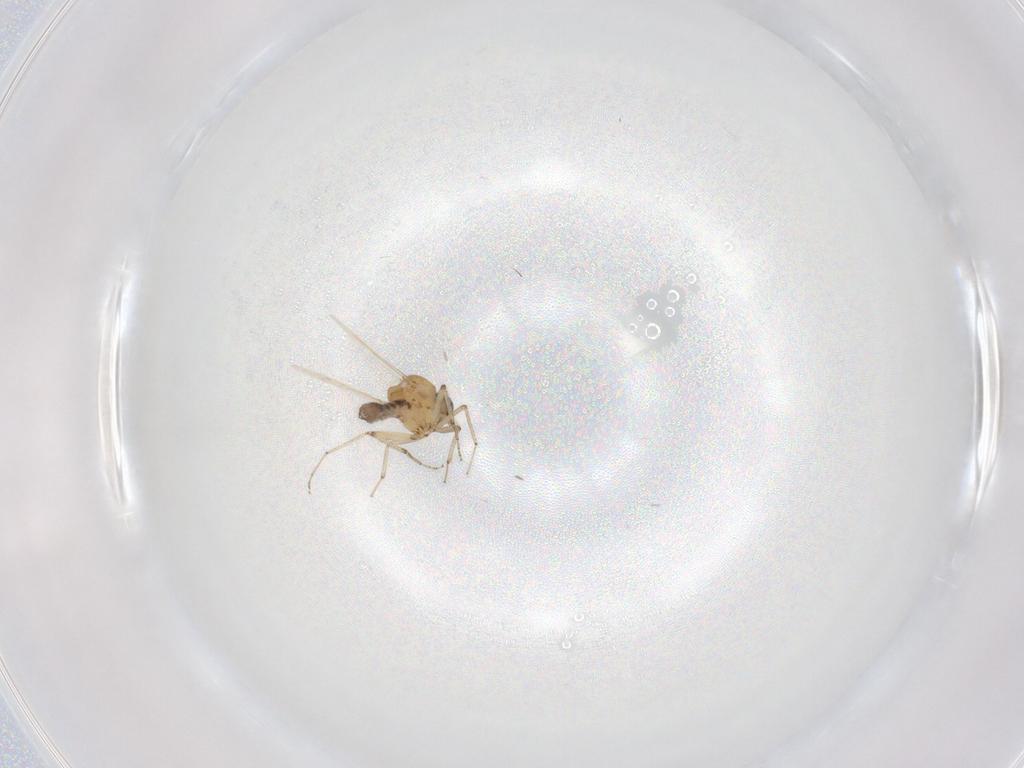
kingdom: Animalia
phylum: Arthropoda
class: Insecta
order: Diptera
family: Ceratopogonidae
